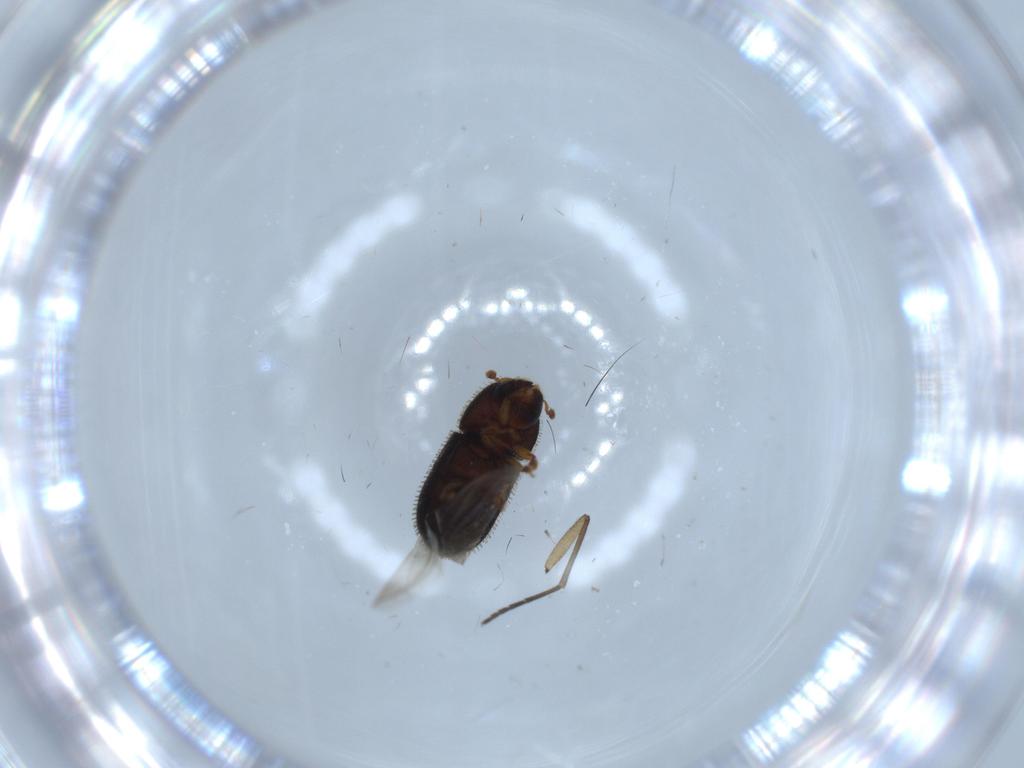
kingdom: Animalia
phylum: Arthropoda
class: Insecta
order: Coleoptera
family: Curculionidae
